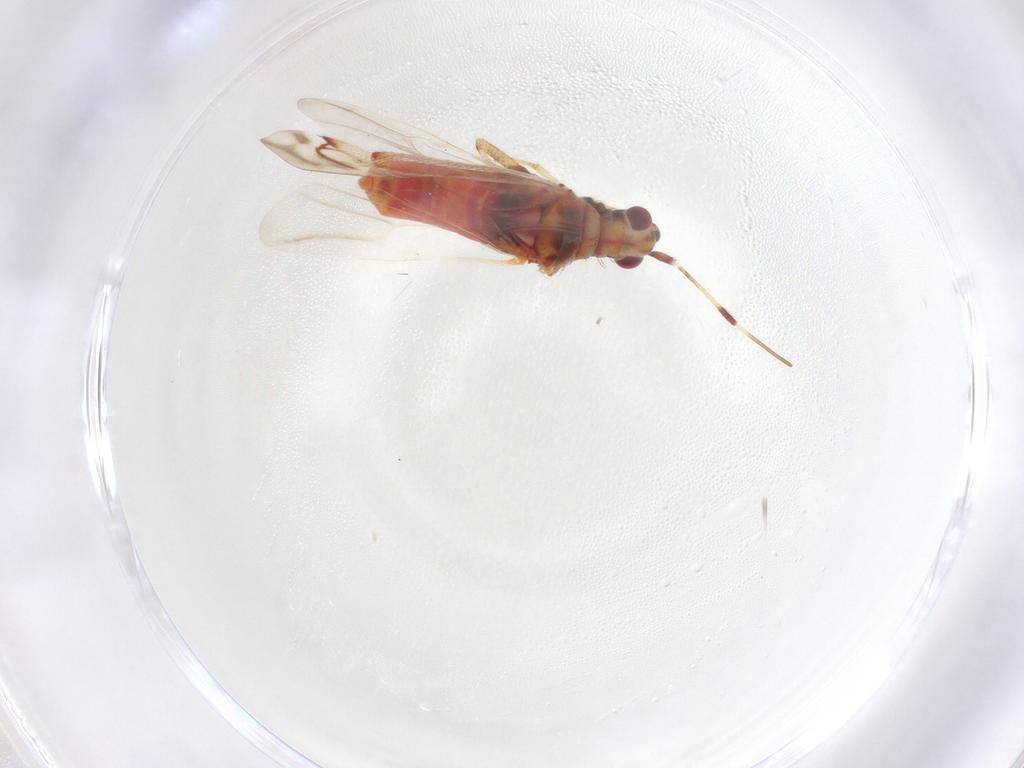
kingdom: Animalia
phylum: Arthropoda
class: Insecta
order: Hemiptera
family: Miridae
